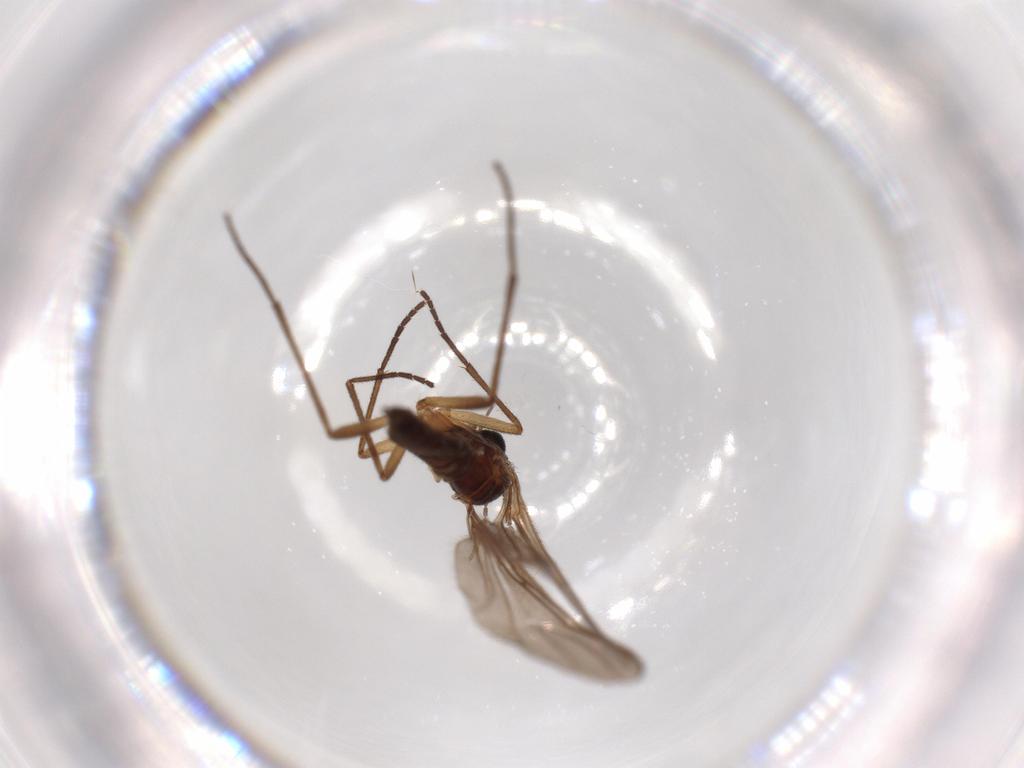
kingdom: Animalia
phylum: Arthropoda
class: Insecta
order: Diptera
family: Sciaridae
